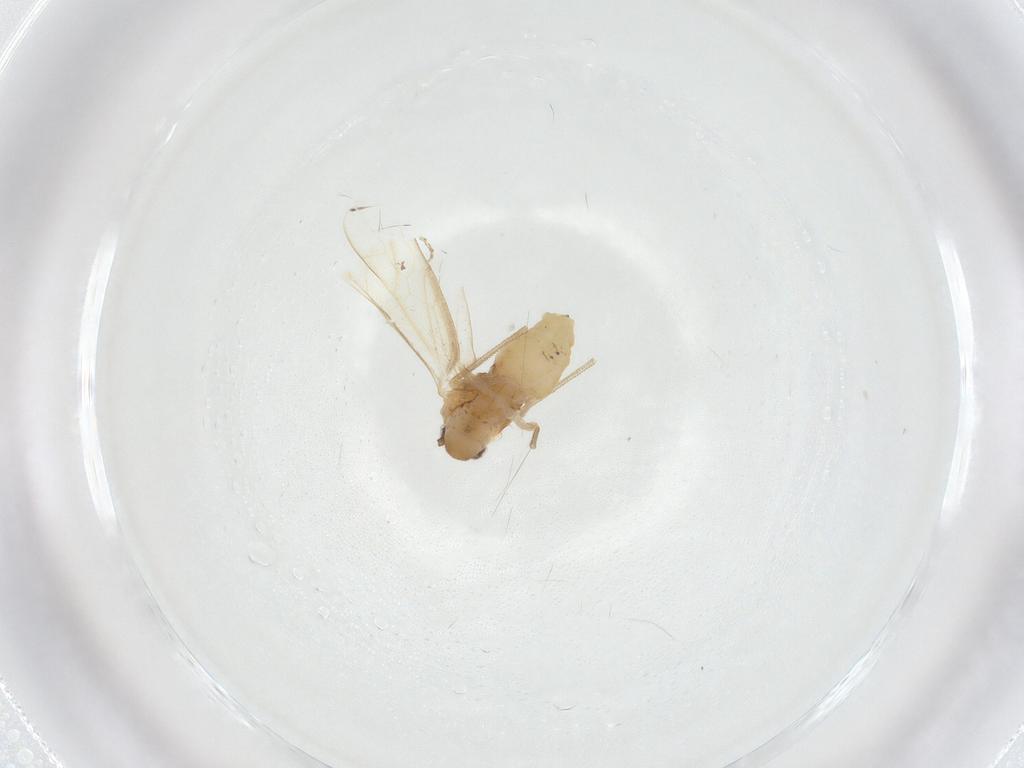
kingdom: Animalia
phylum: Arthropoda
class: Insecta
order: Psocodea
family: Caeciliusidae
